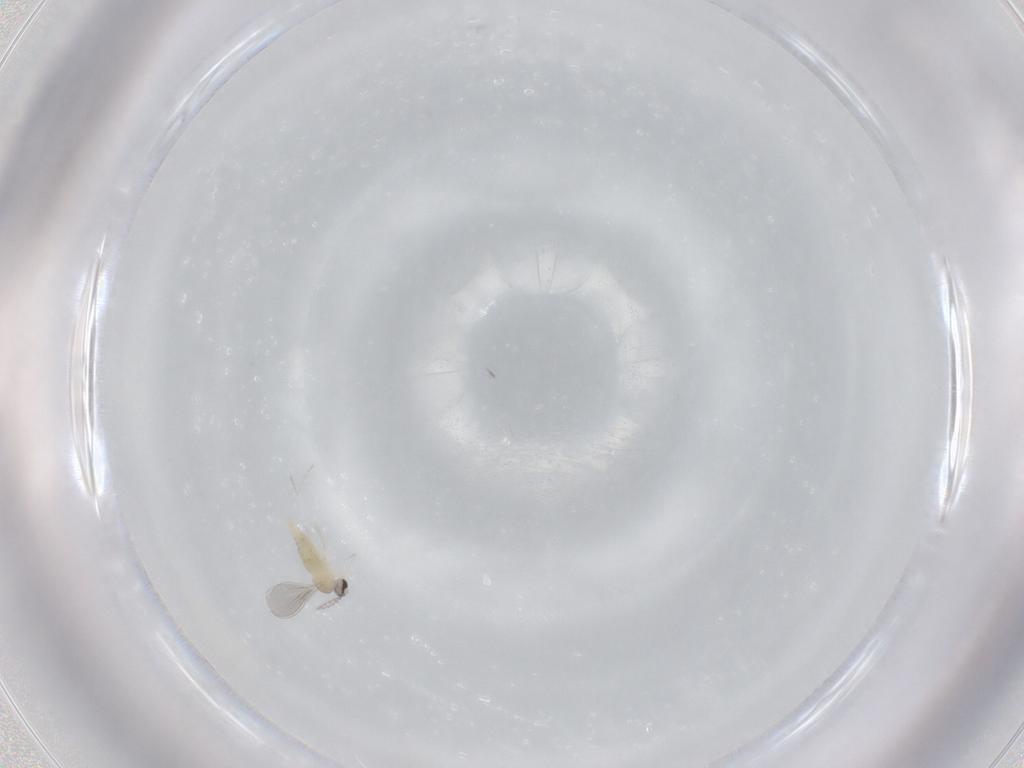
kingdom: Animalia
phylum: Arthropoda
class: Insecta
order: Diptera
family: Cecidomyiidae
